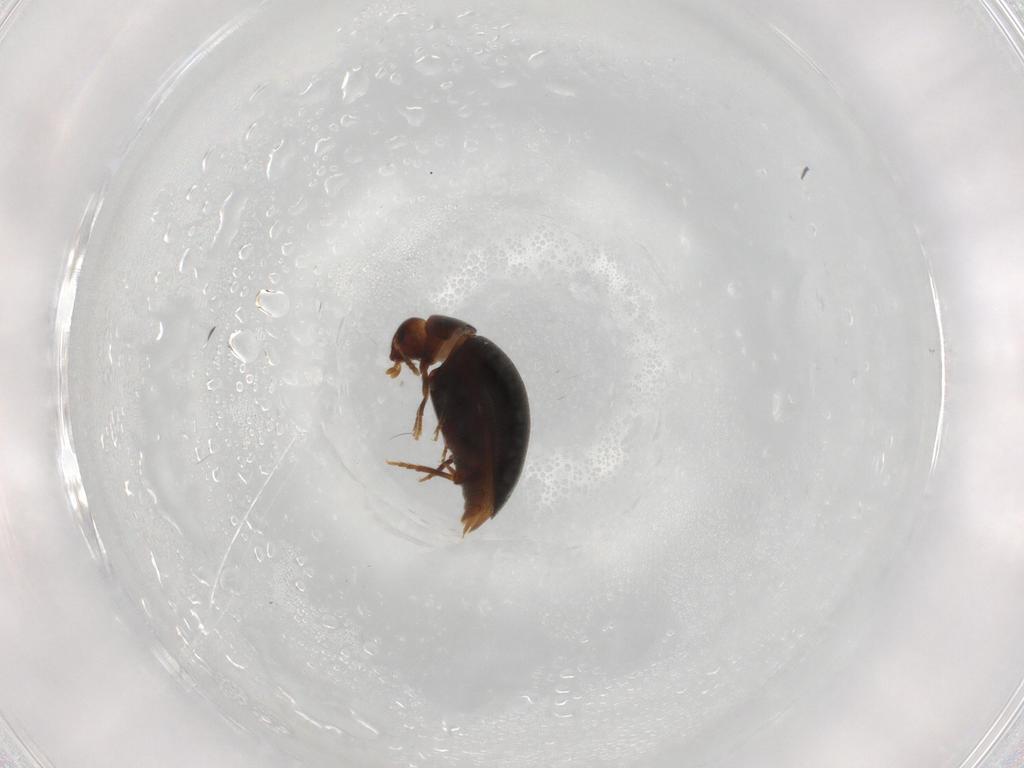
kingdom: Animalia
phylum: Arthropoda
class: Insecta
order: Coleoptera
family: Melandryidae
